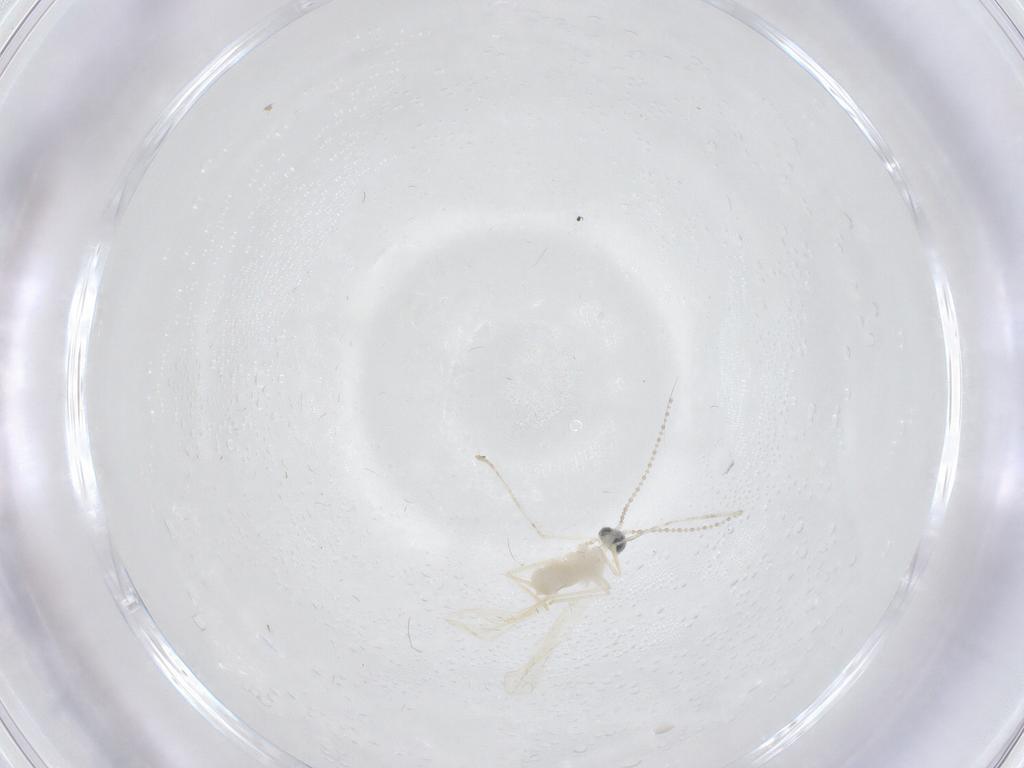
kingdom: Animalia
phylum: Arthropoda
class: Insecta
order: Diptera
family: Cecidomyiidae
